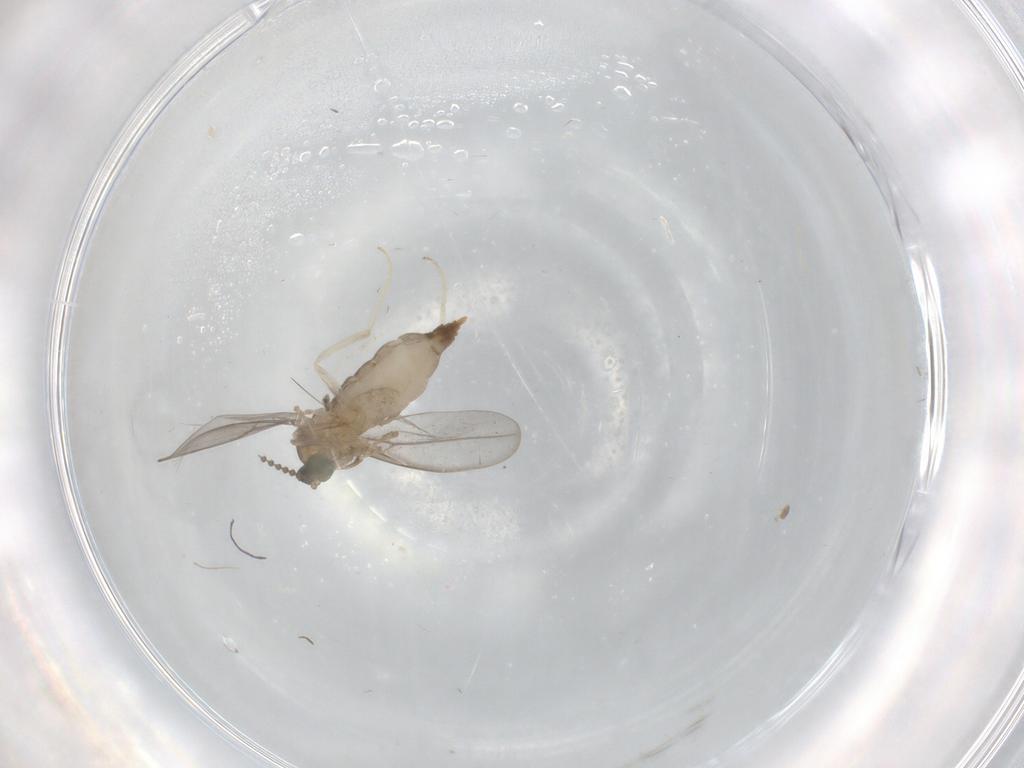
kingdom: Animalia
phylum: Arthropoda
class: Insecta
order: Diptera
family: Cecidomyiidae
